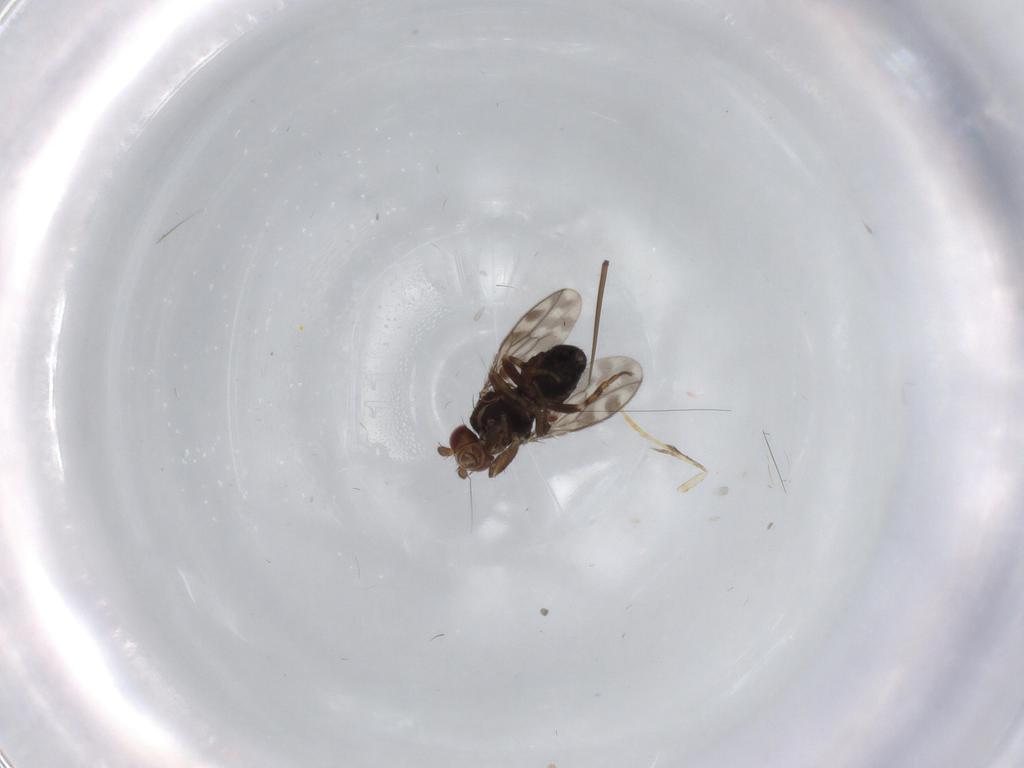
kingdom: Animalia
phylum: Arthropoda
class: Insecta
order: Diptera
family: Sphaeroceridae
